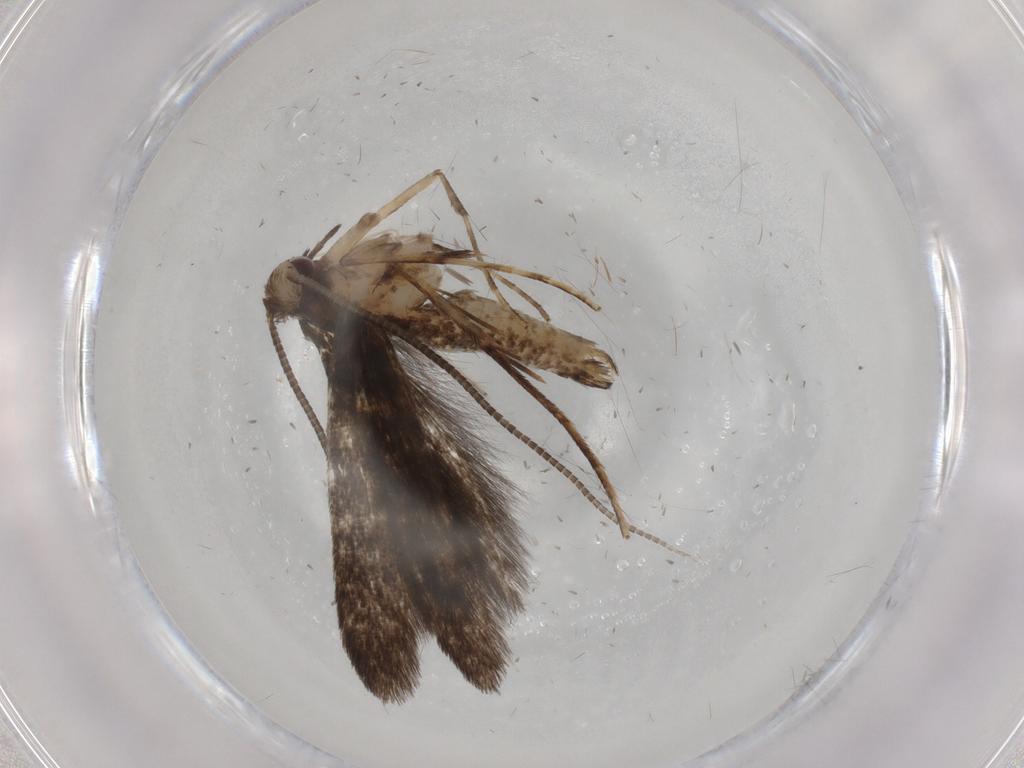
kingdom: Animalia
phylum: Arthropoda
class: Insecta
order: Lepidoptera
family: Gracillariidae
